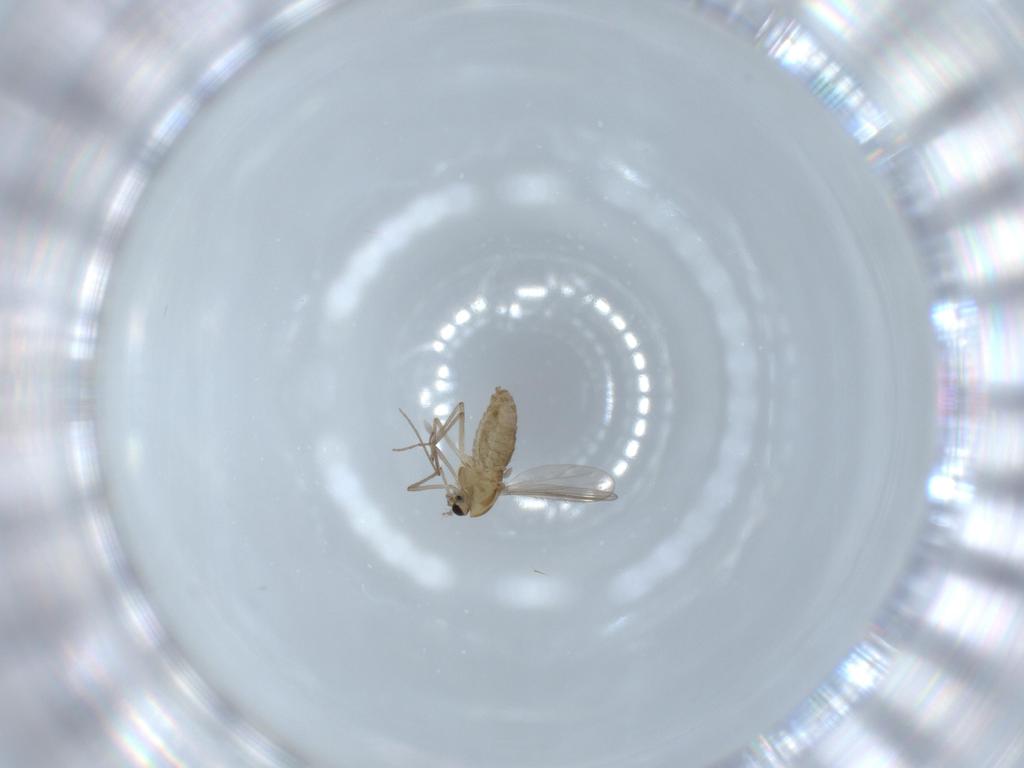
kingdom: Animalia
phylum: Arthropoda
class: Insecta
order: Diptera
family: Chironomidae
